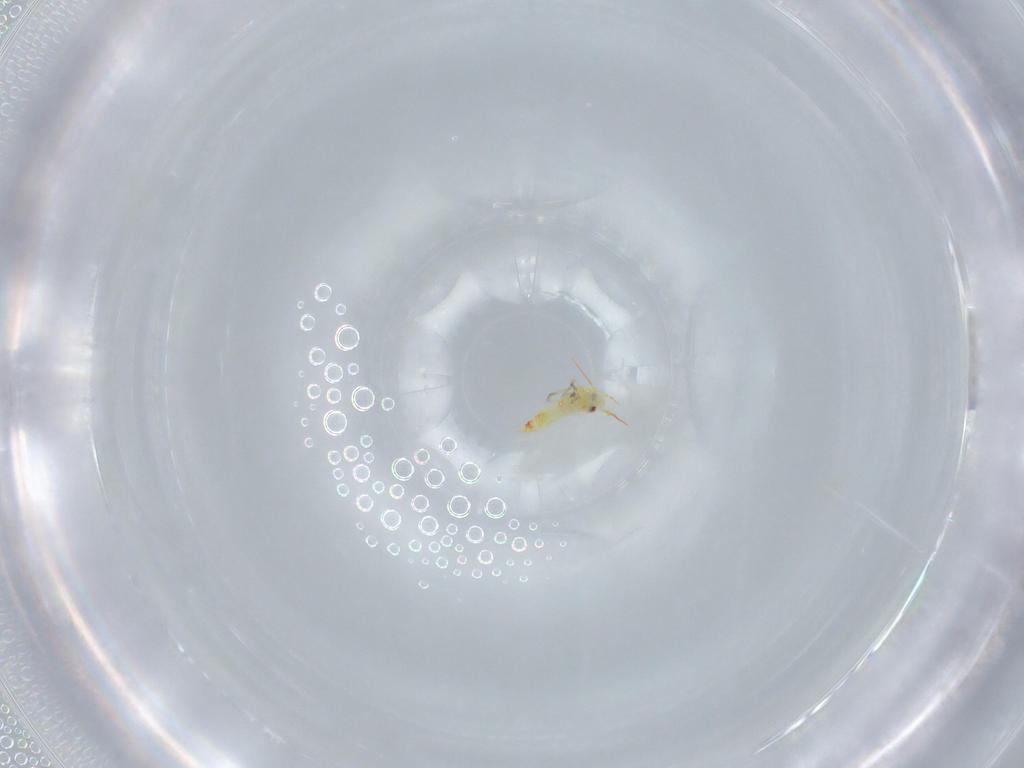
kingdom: Animalia
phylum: Arthropoda
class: Insecta
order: Hemiptera
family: Aleyrodidae
